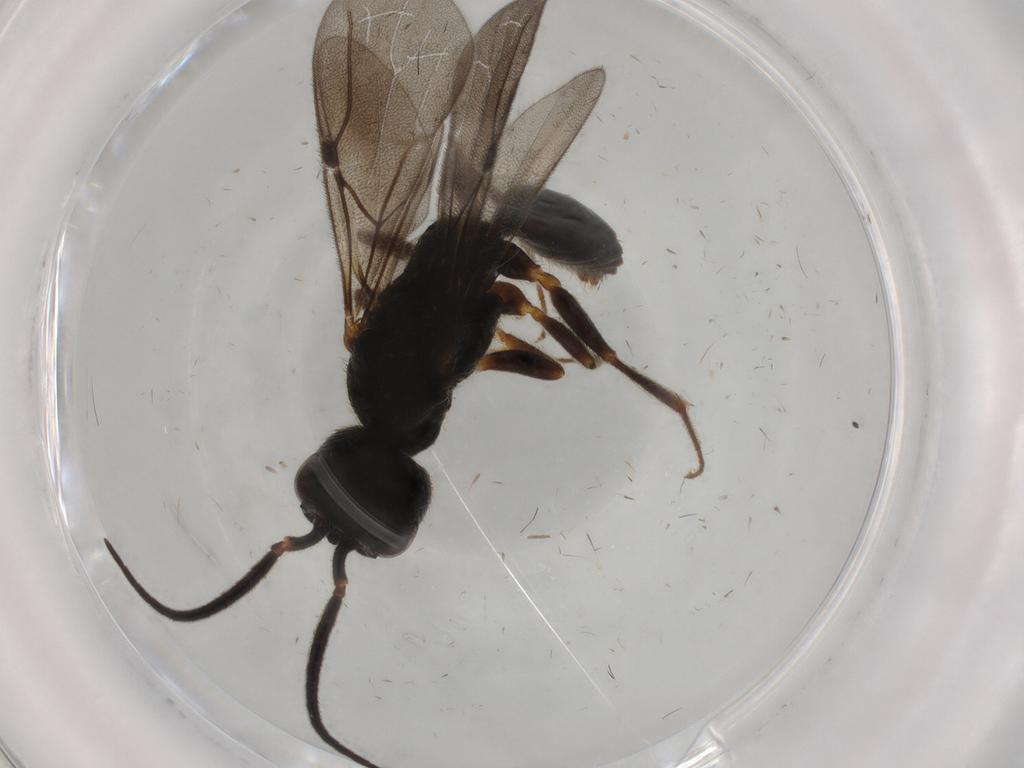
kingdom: Animalia
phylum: Arthropoda
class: Insecta
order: Hymenoptera
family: Bethylidae
